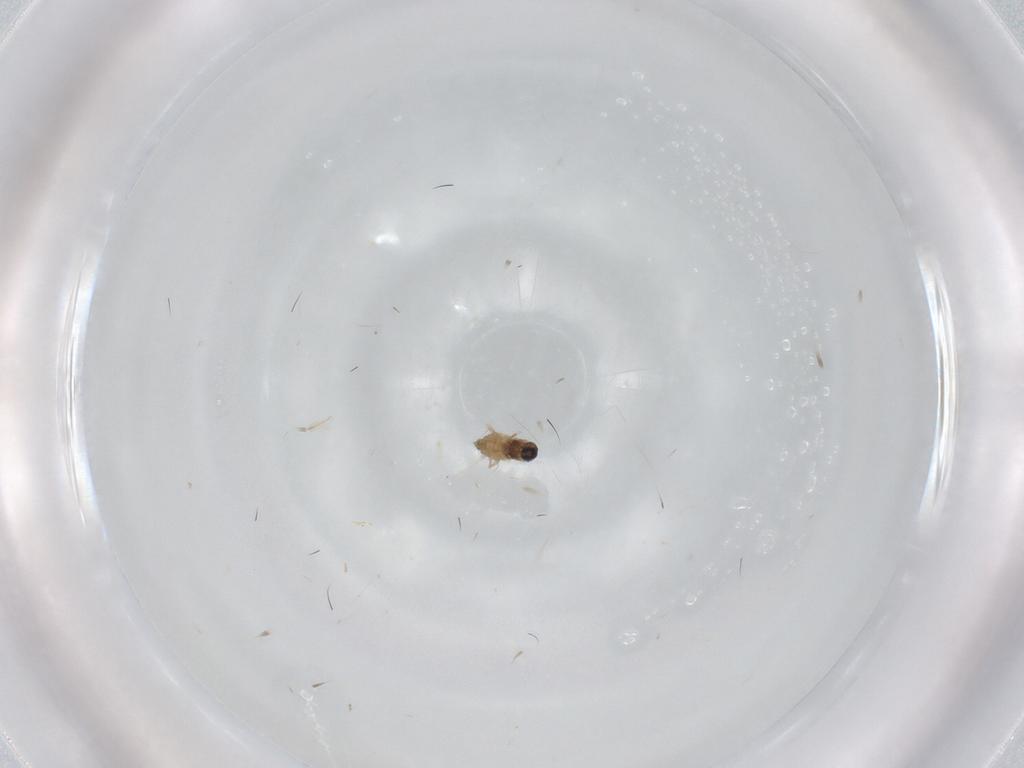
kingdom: Animalia
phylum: Arthropoda
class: Insecta
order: Diptera
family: Cecidomyiidae
